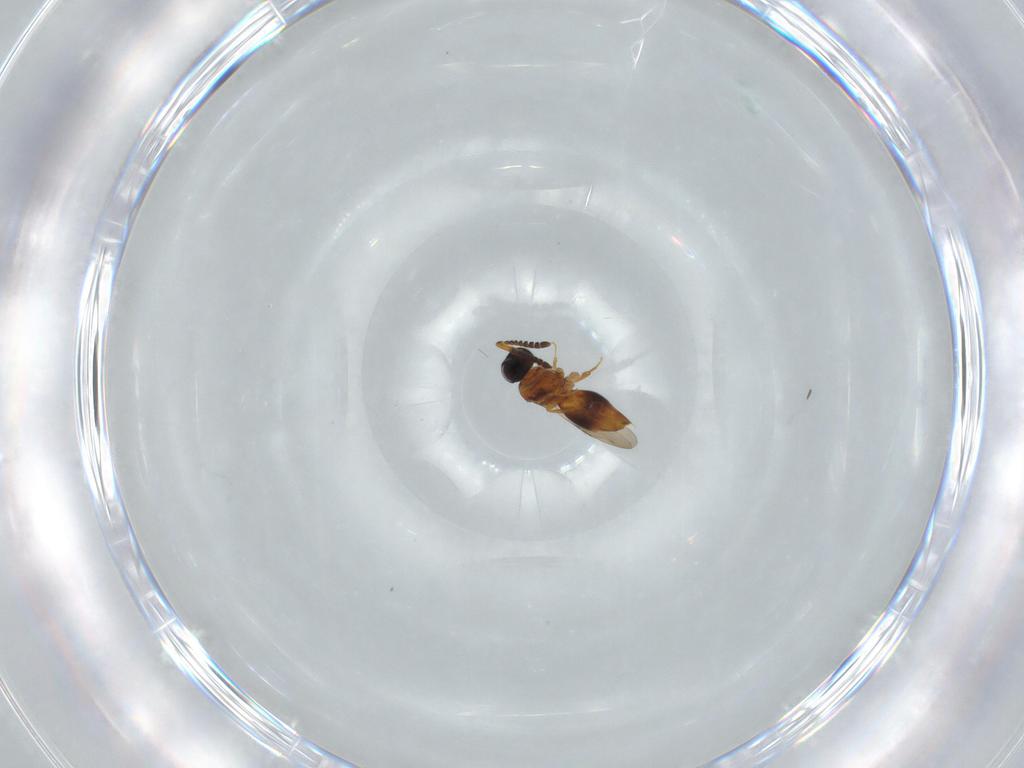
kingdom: Animalia
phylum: Arthropoda
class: Insecta
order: Hymenoptera
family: Ceraphronidae
